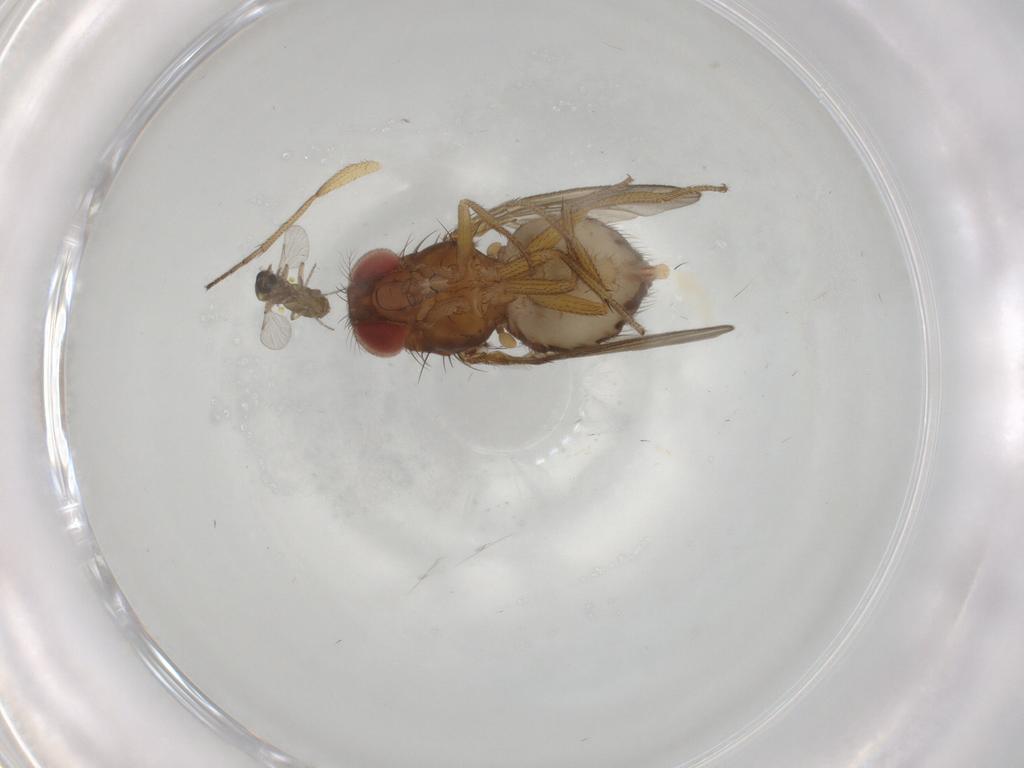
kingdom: Animalia
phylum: Arthropoda
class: Insecta
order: Diptera
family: Drosophilidae
